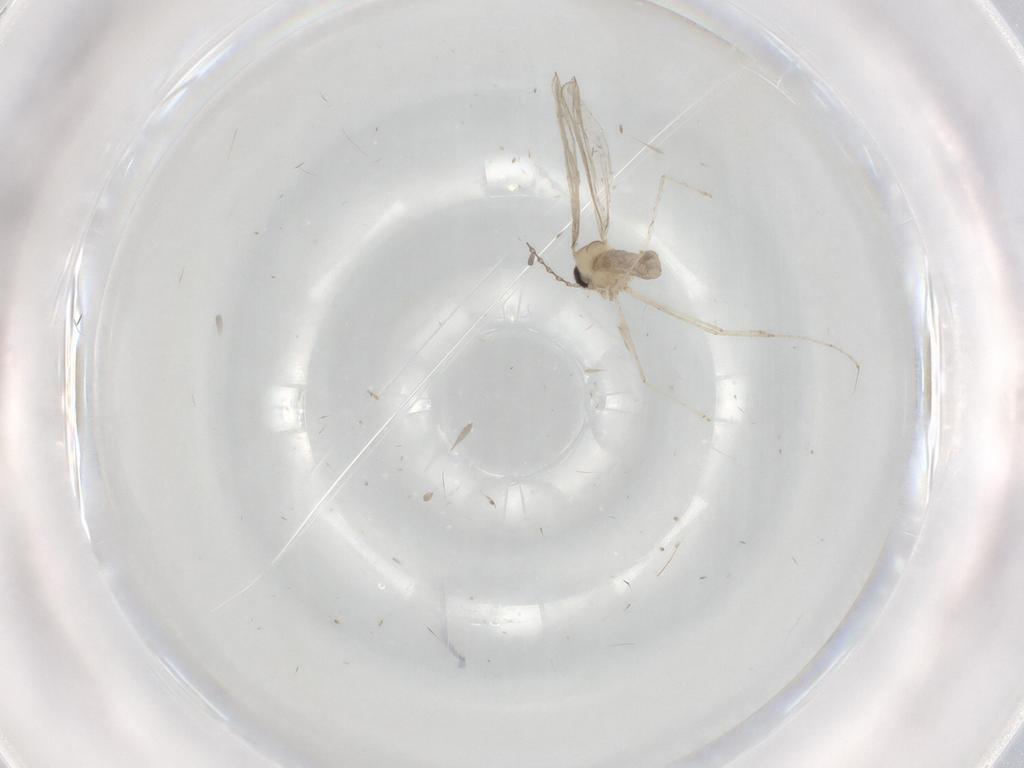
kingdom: Animalia
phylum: Arthropoda
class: Insecta
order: Diptera
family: Cecidomyiidae
